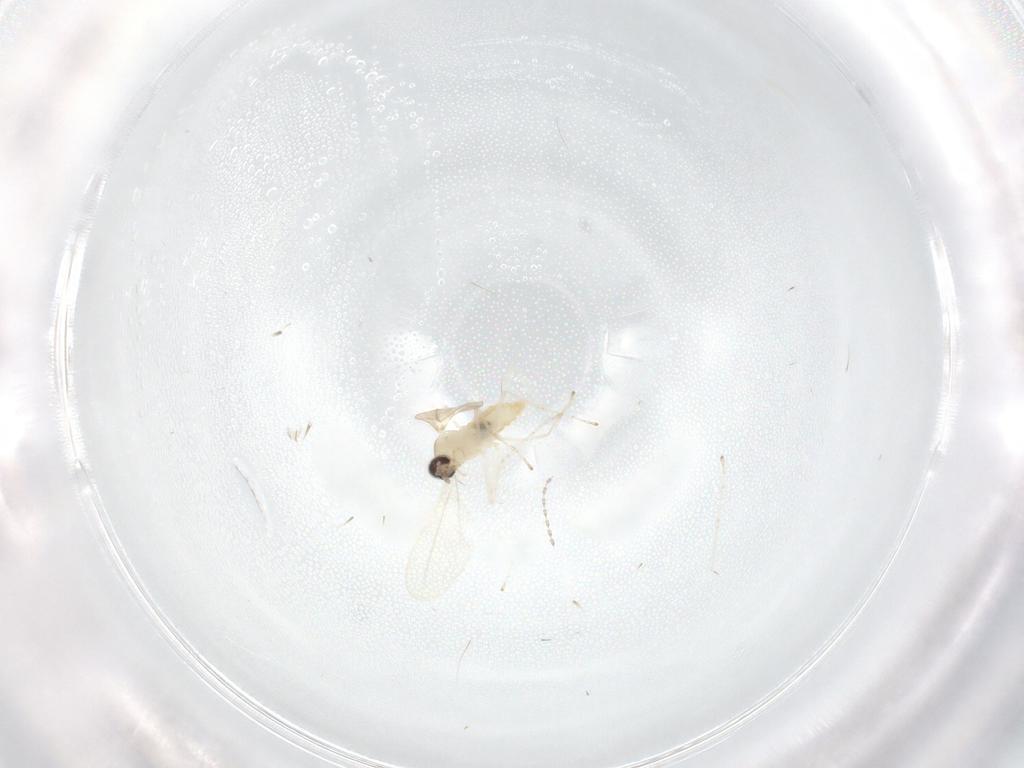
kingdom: Animalia
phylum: Arthropoda
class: Insecta
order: Diptera
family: Cecidomyiidae
